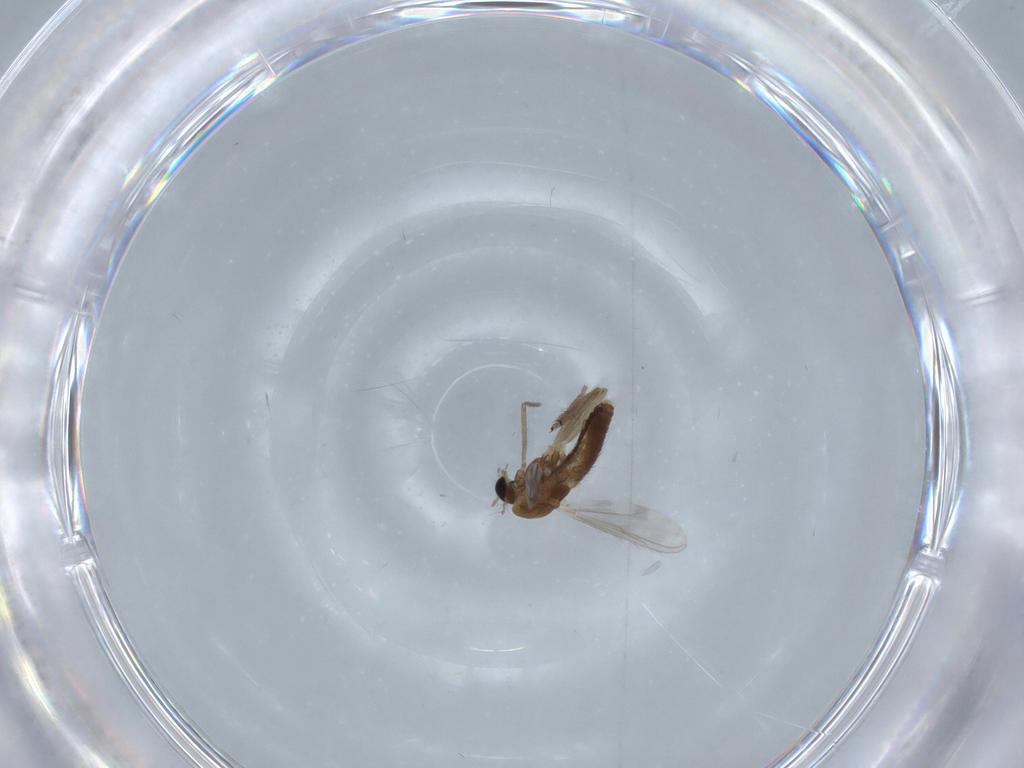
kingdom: Animalia
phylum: Arthropoda
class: Insecta
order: Diptera
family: Chironomidae
